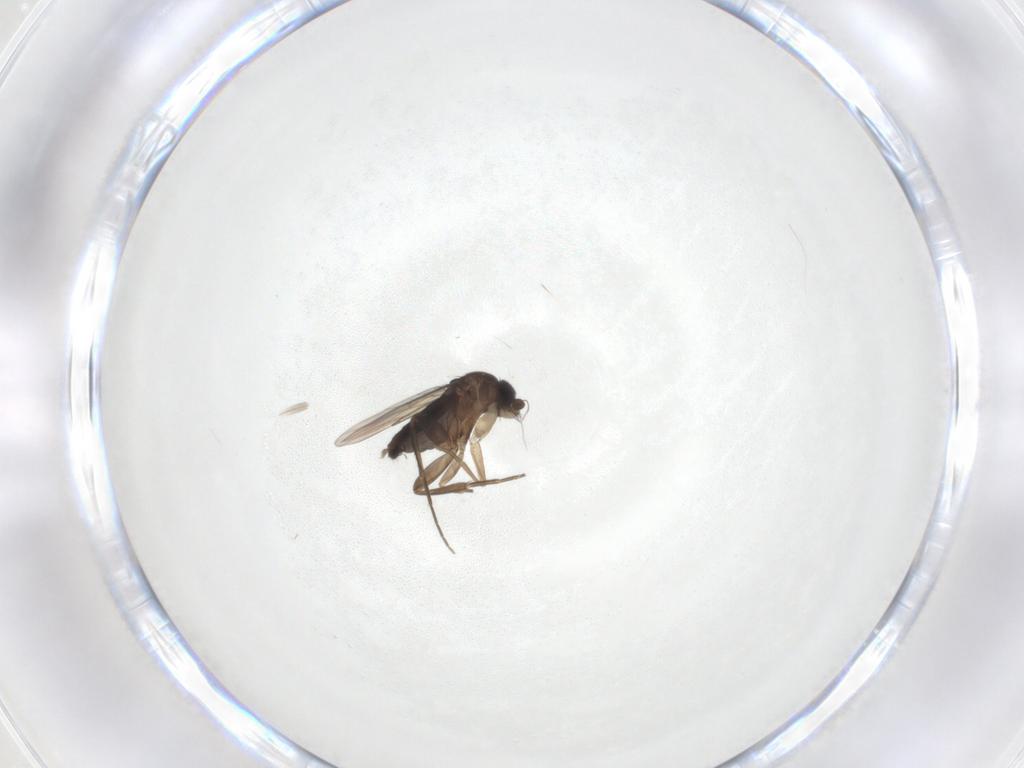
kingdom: Animalia
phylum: Arthropoda
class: Insecta
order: Diptera
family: Phoridae
